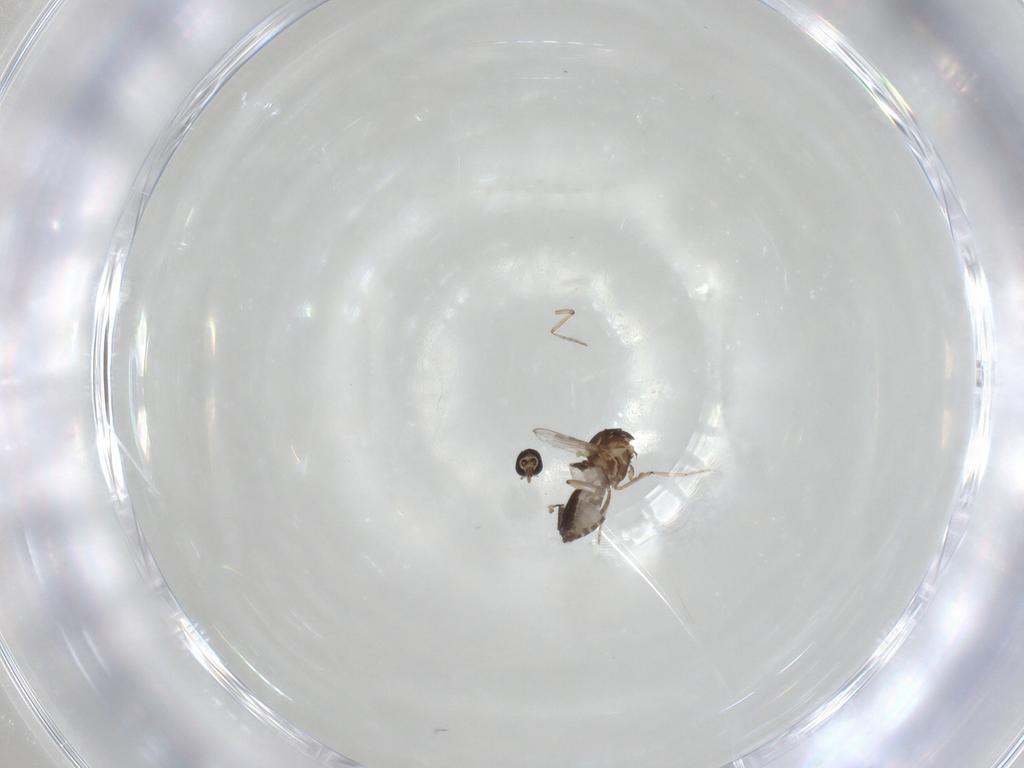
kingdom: Animalia
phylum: Arthropoda
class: Insecta
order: Diptera
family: Ceratopogonidae
